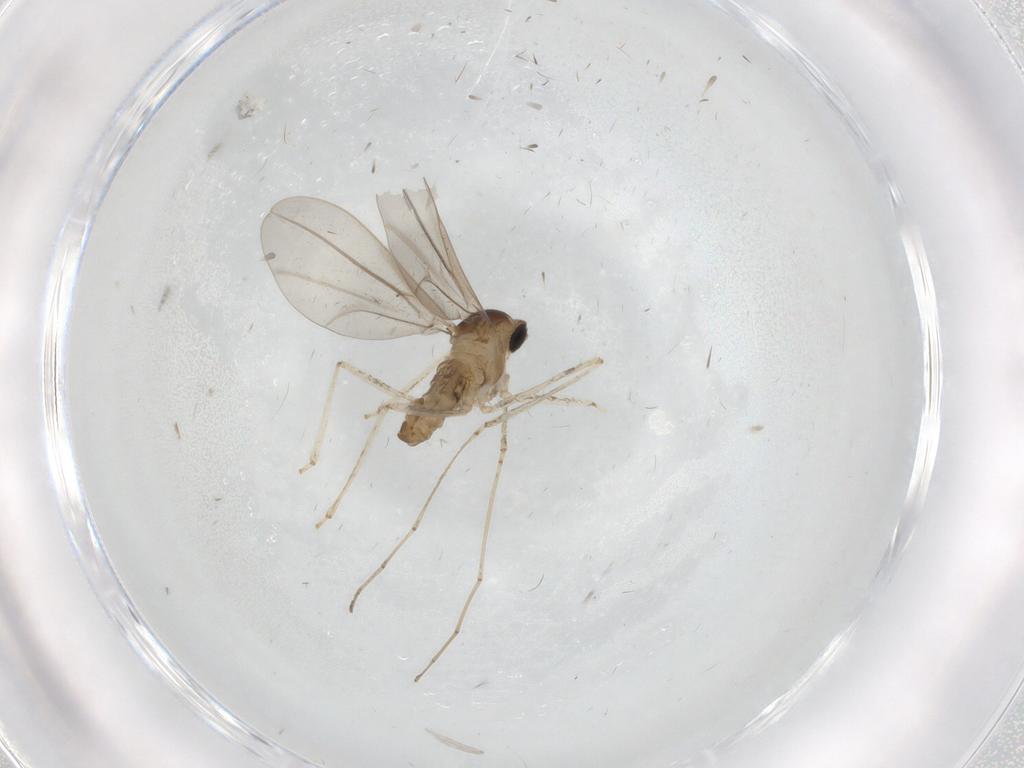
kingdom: Animalia
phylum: Arthropoda
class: Insecta
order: Diptera
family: Cecidomyiidae
